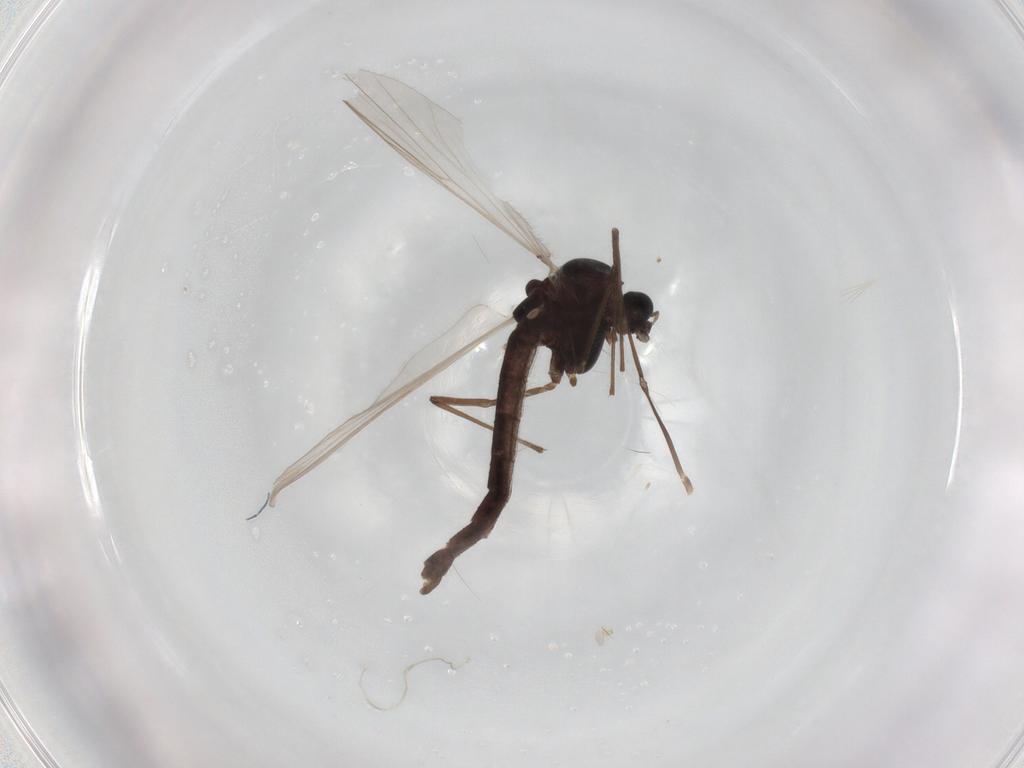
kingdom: Animalia
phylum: Arthropoda
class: Insecta
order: Diptera
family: Chironomidae
